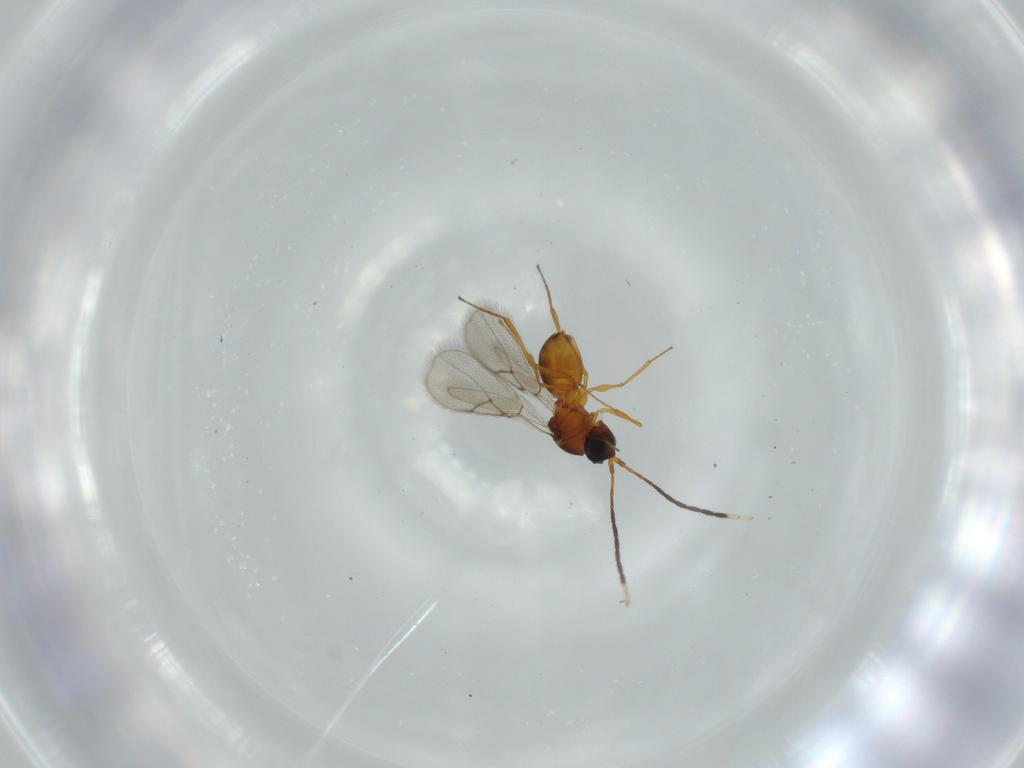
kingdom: Animalia
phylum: Arthropoda
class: Insecta
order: Hymenoptera
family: Figitidae
